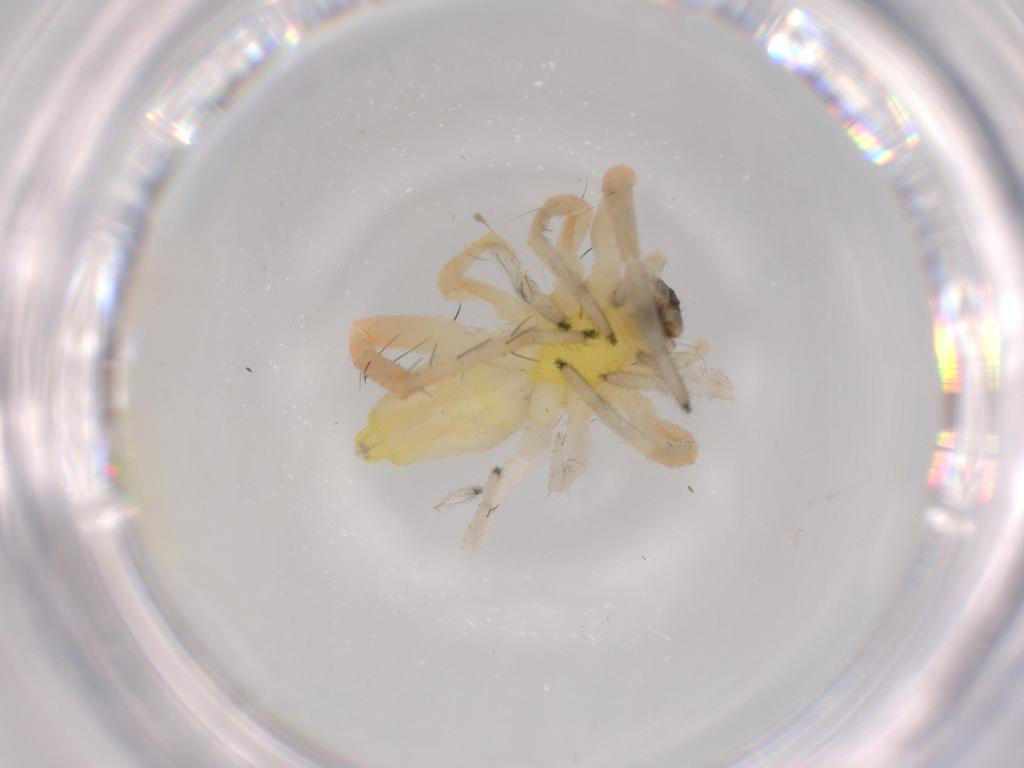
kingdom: Animalia
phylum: Arthropoda
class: Arachnida
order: Araneae
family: Anyphaenidae
